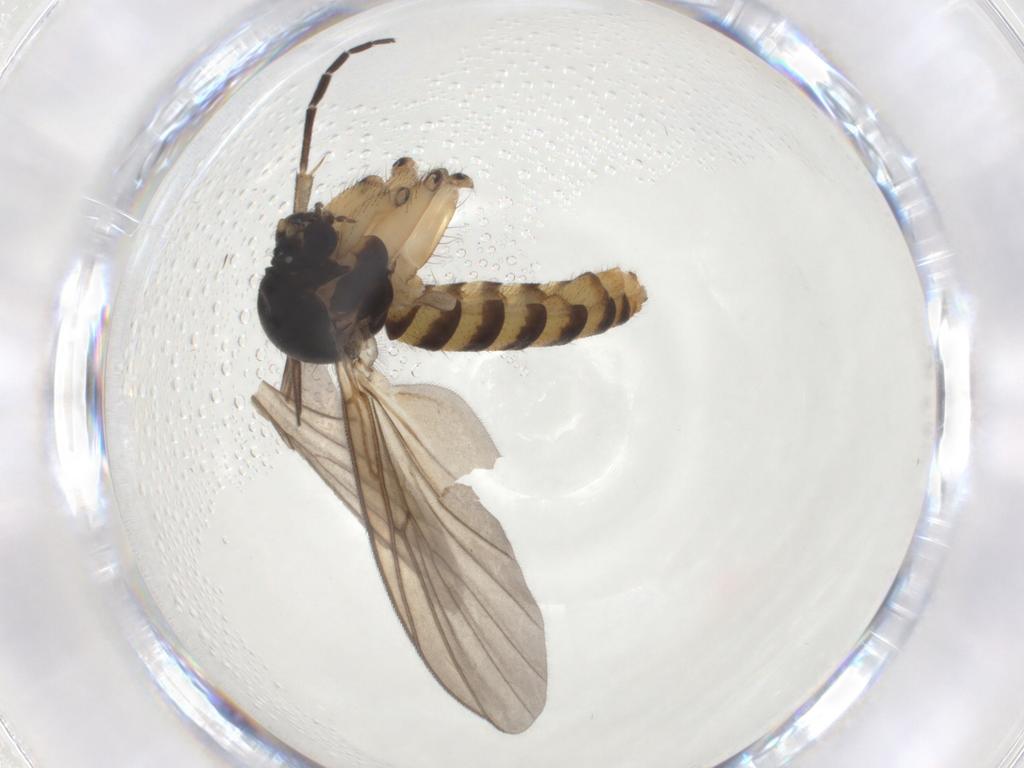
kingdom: Animalia
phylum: Arthropoda
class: Insecta
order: Diptera
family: Mycetophilidae
